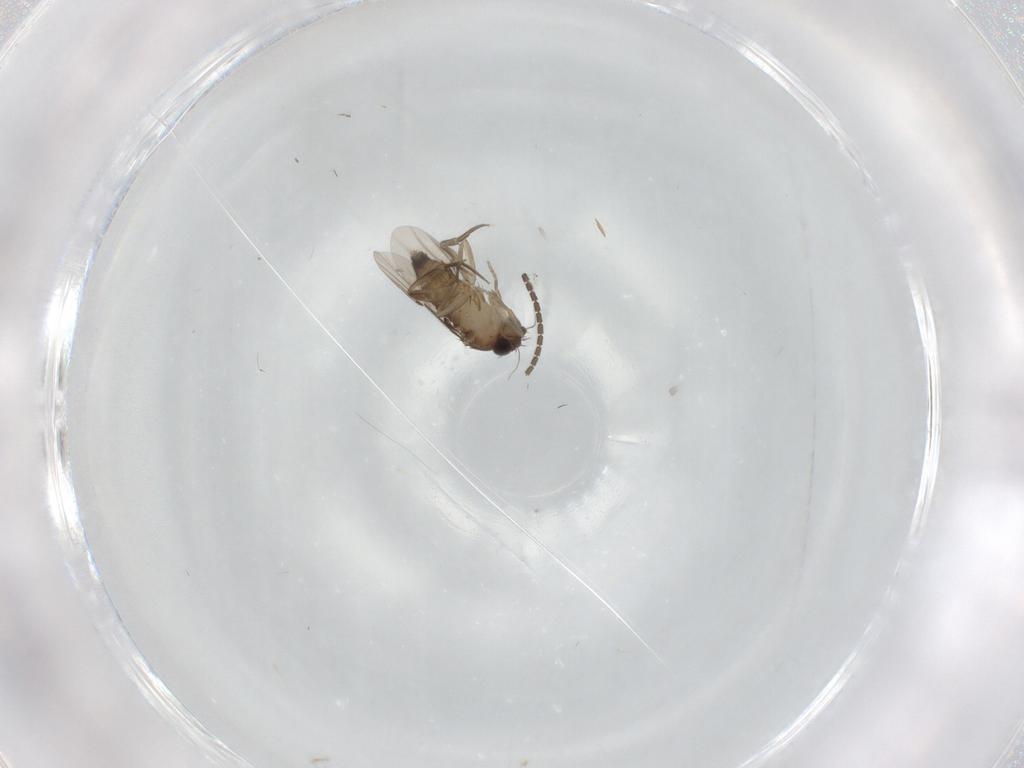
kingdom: Animalia
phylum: Arthropoda
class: Insecta
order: Diptera
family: Phoridae
